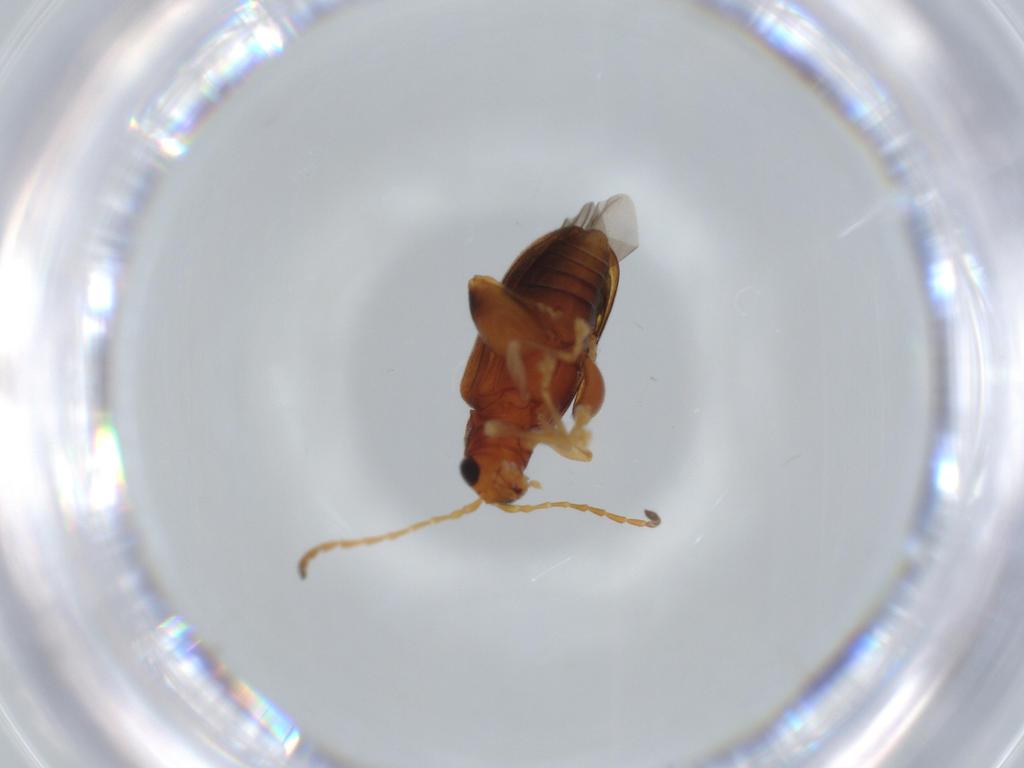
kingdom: Animalia
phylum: Arthropoda
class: Insecta
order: Coleoptera
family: Chrysomelidae
